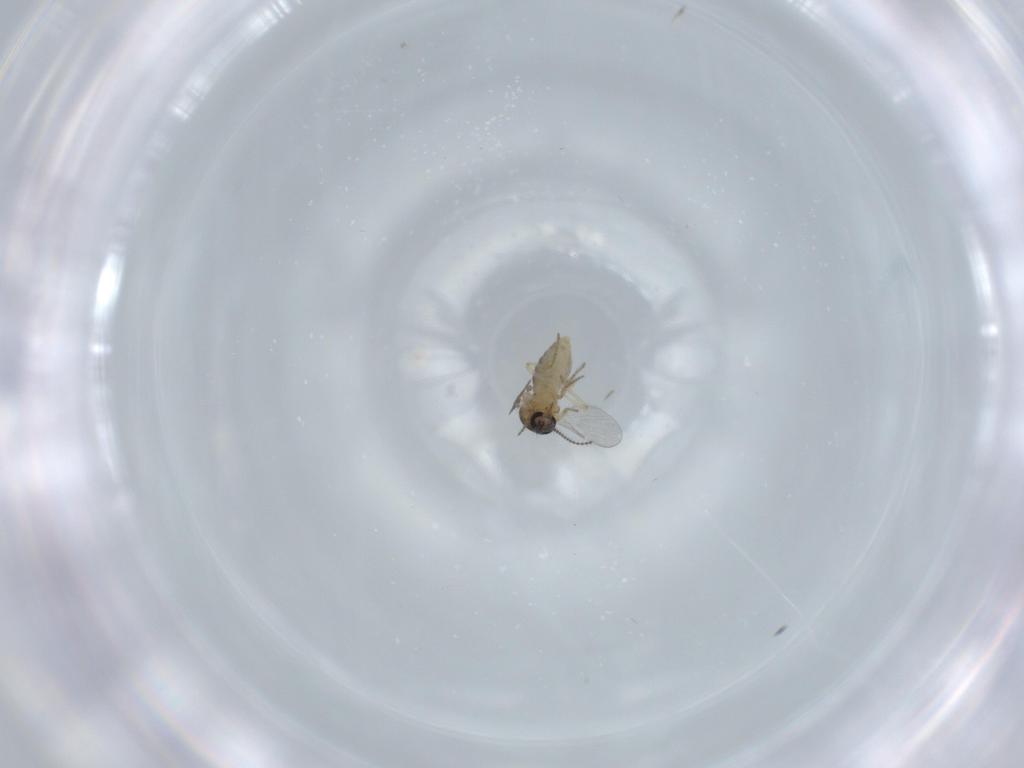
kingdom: Animalia
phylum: Arthropoda
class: Insecta
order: Diptera
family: Ceratopogonidae
